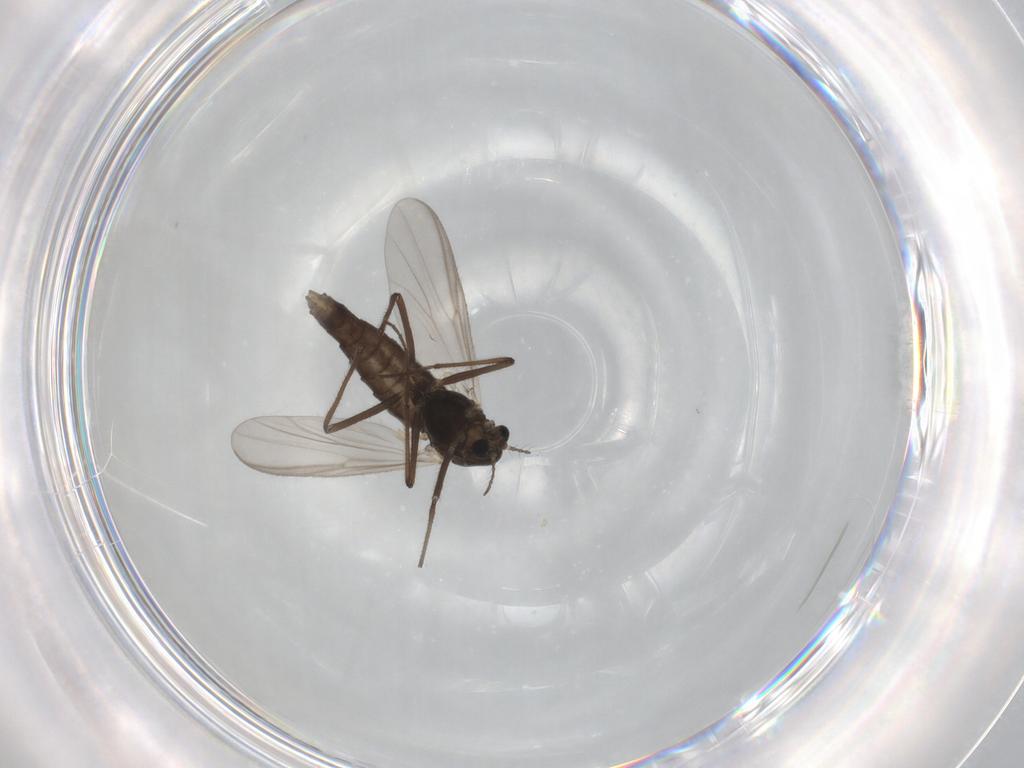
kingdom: Animalia
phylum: Arthropoda
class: Insecta
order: Diptera
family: Chironomidae
